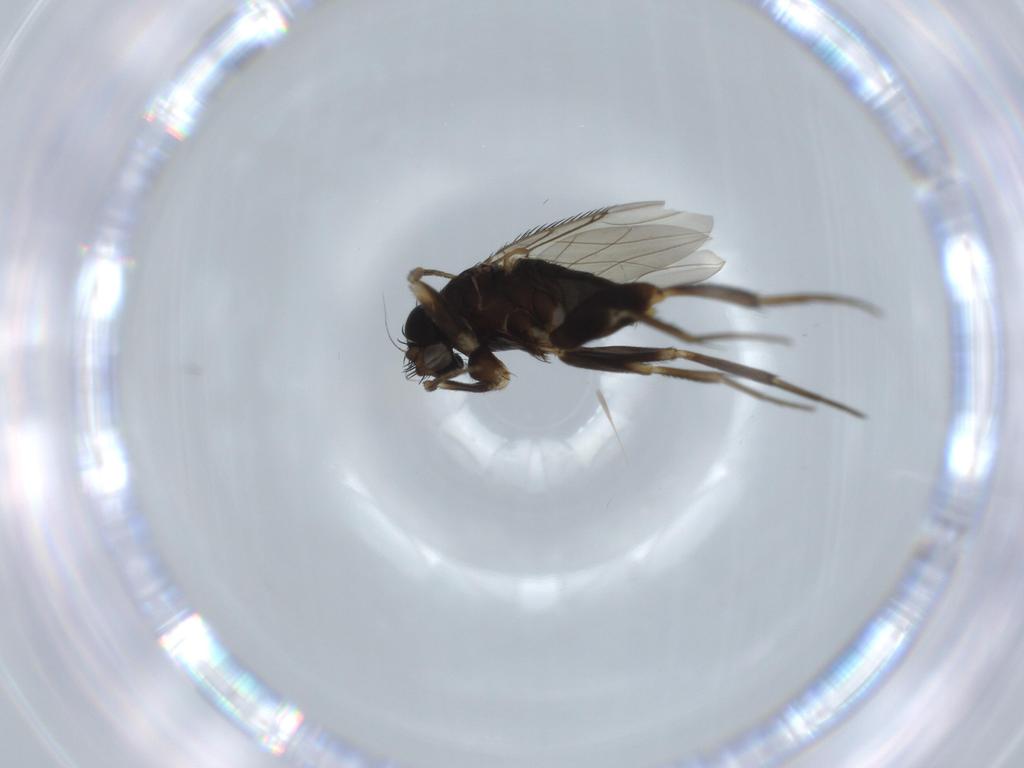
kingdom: Animalia
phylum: Arthropoda
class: Insecta
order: Diptera
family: Phoridae
